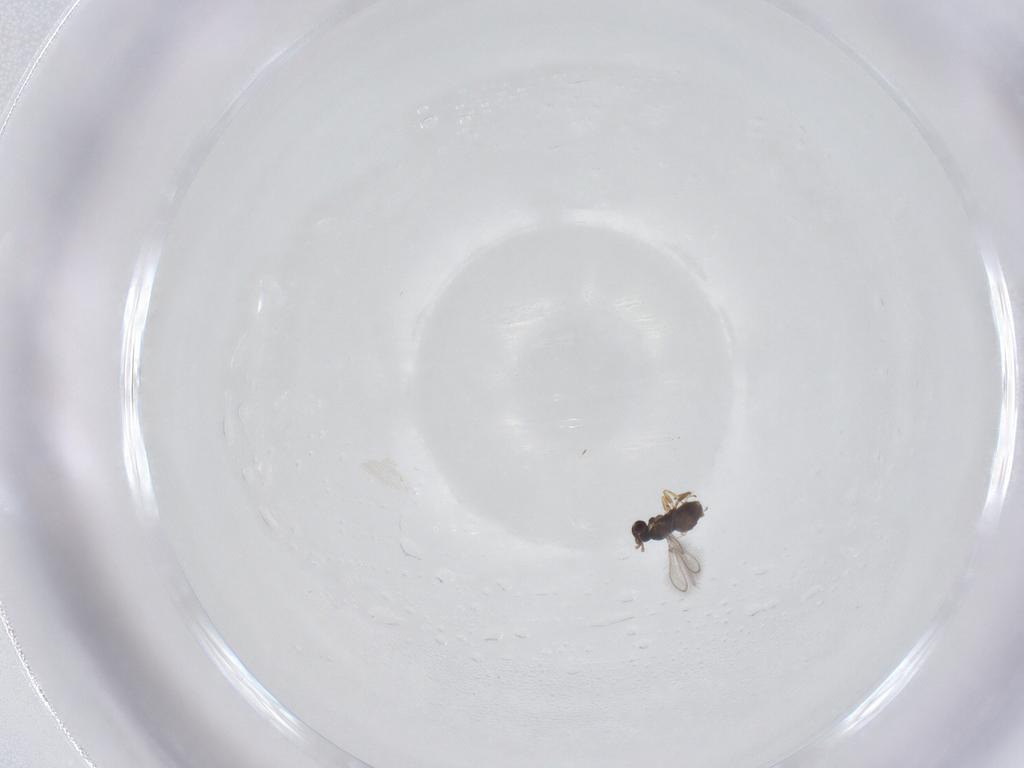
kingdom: Animalia
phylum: Arthropoda
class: Insecta
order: Hymenoptera
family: Mymaridae
